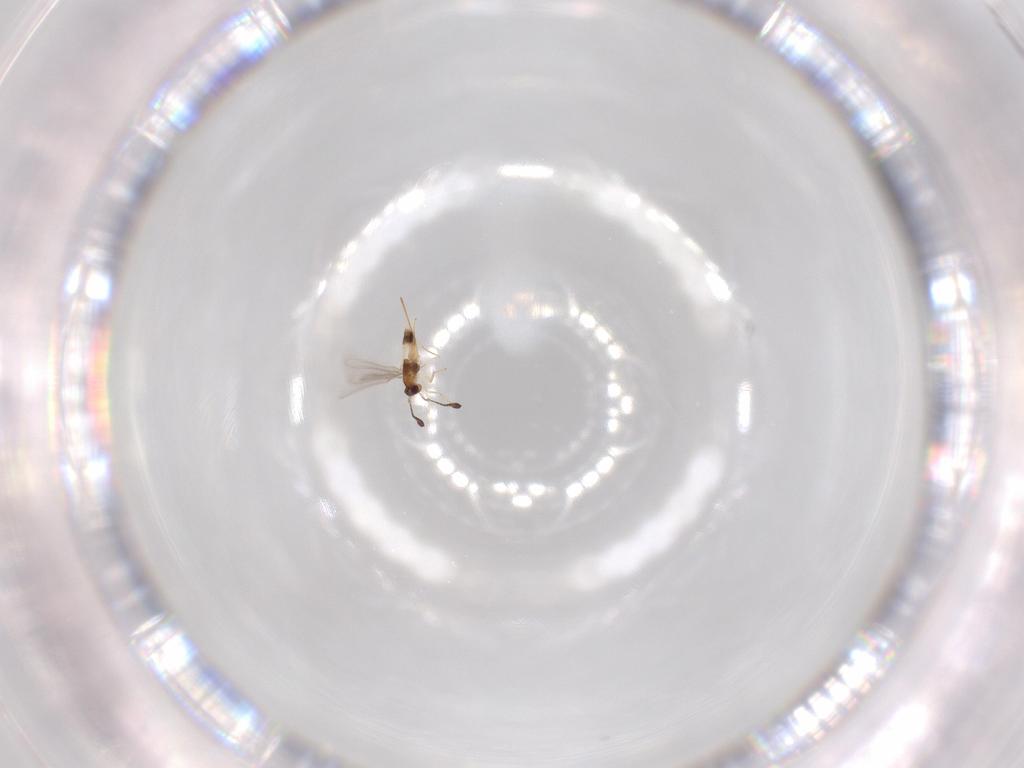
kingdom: Animalia
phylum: Arthropoda
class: Insecta
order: Hymenoptera
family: Mymaridae
